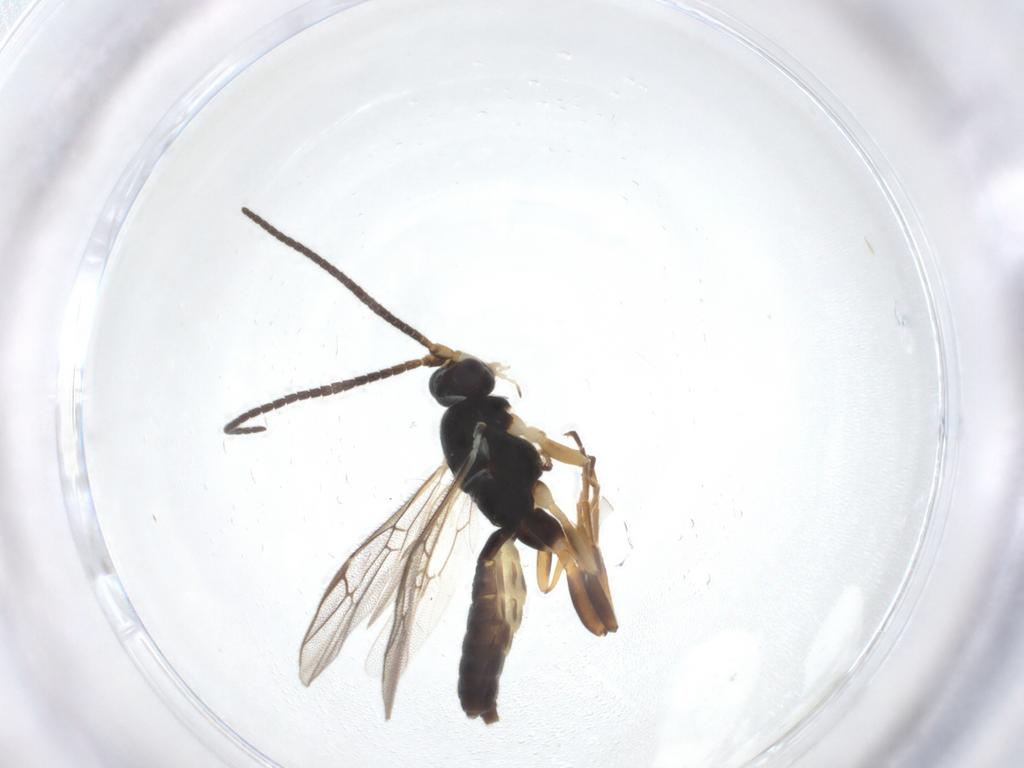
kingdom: Animalia
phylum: Arthropoda
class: Insecta
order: Hymenoptera
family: Ichneumonidae
